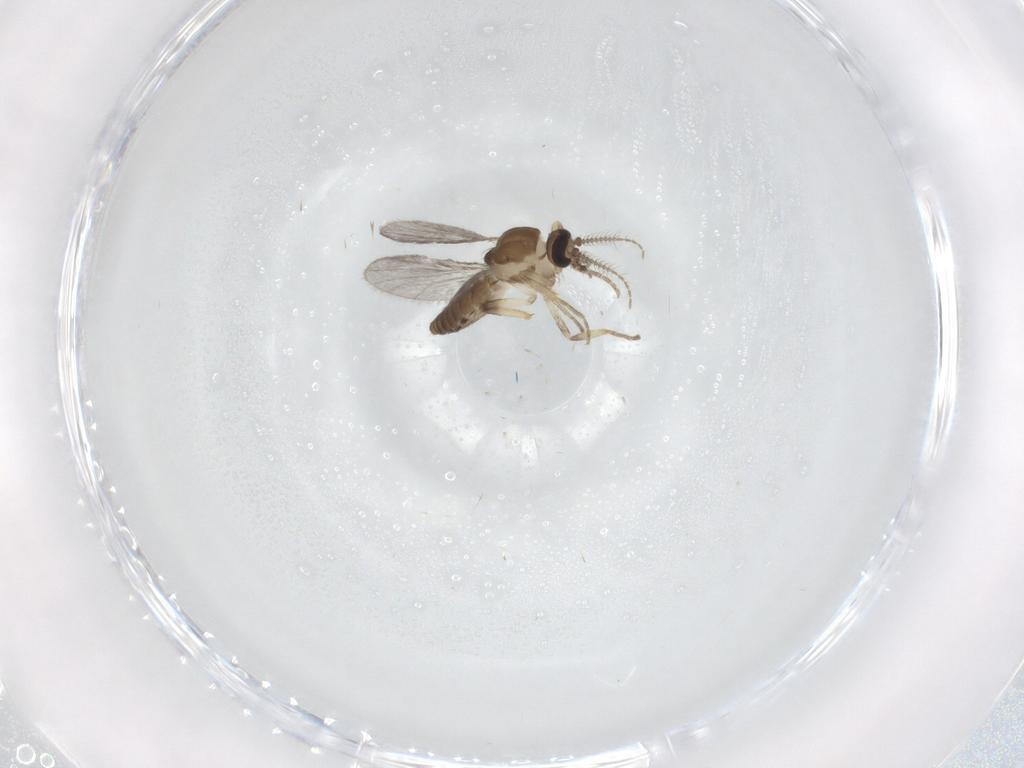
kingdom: Animalia
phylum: Arthropoda
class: Insecta
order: Diptera
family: Ceratopogonidae
